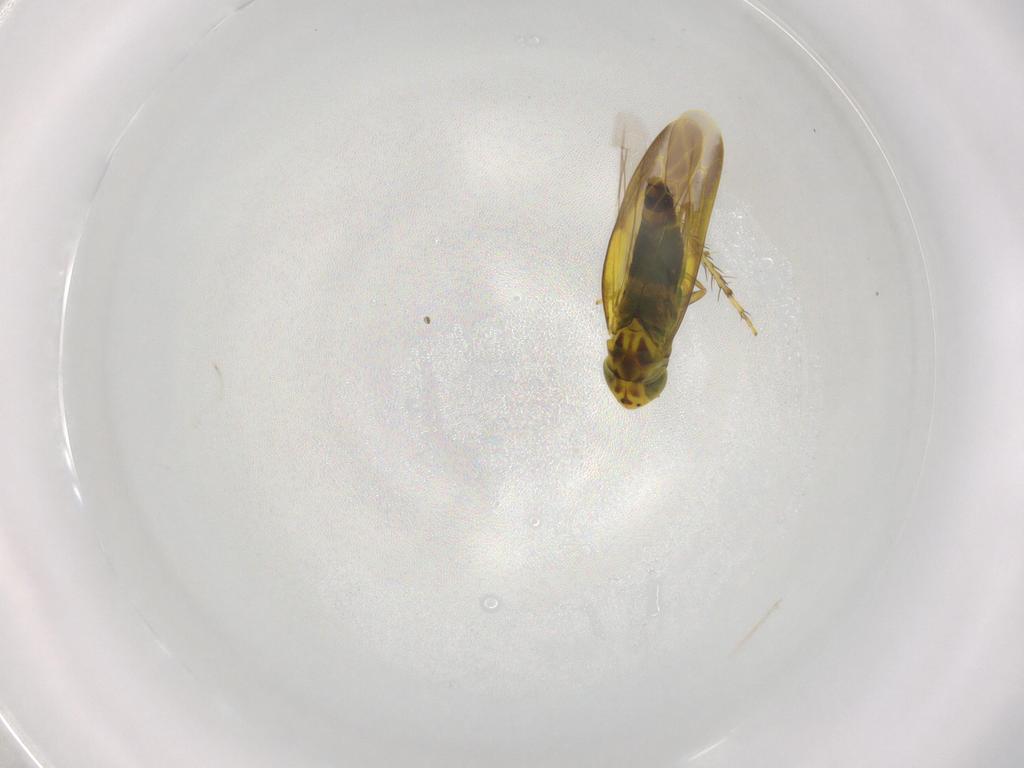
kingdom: Animalia
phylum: Arthropoda
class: Insecta
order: Hemiptera
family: Cicadellidae
